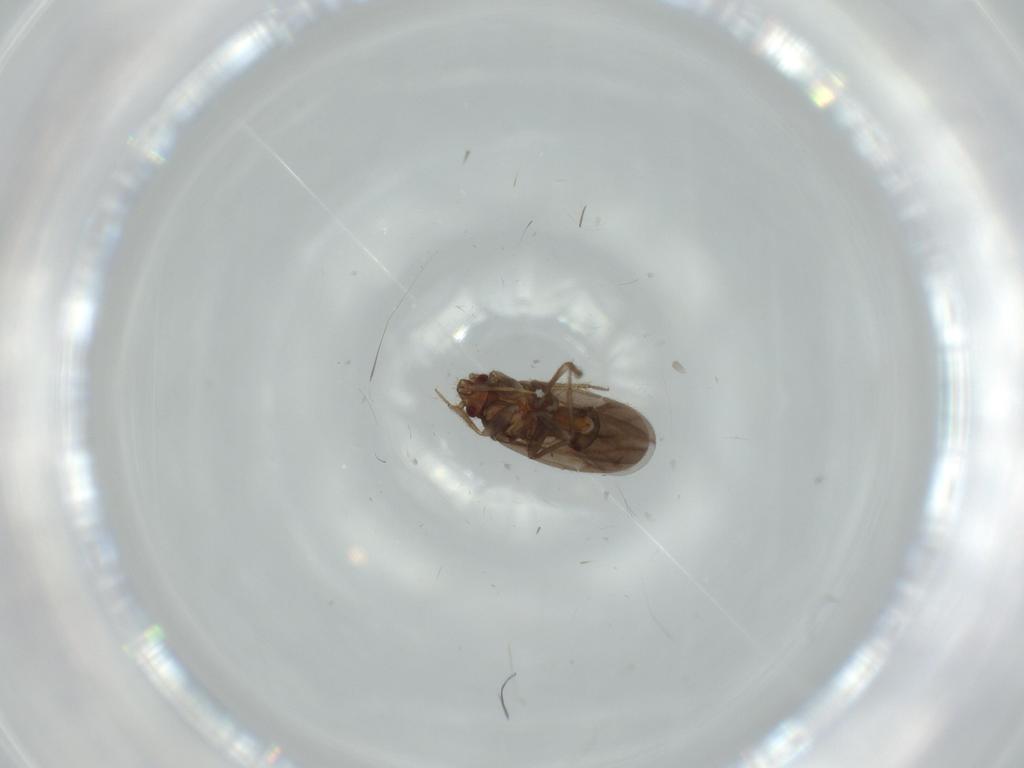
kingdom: Animalia
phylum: Arthropoda
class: Insecta
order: Hemiptera
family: Ceratocombidae
